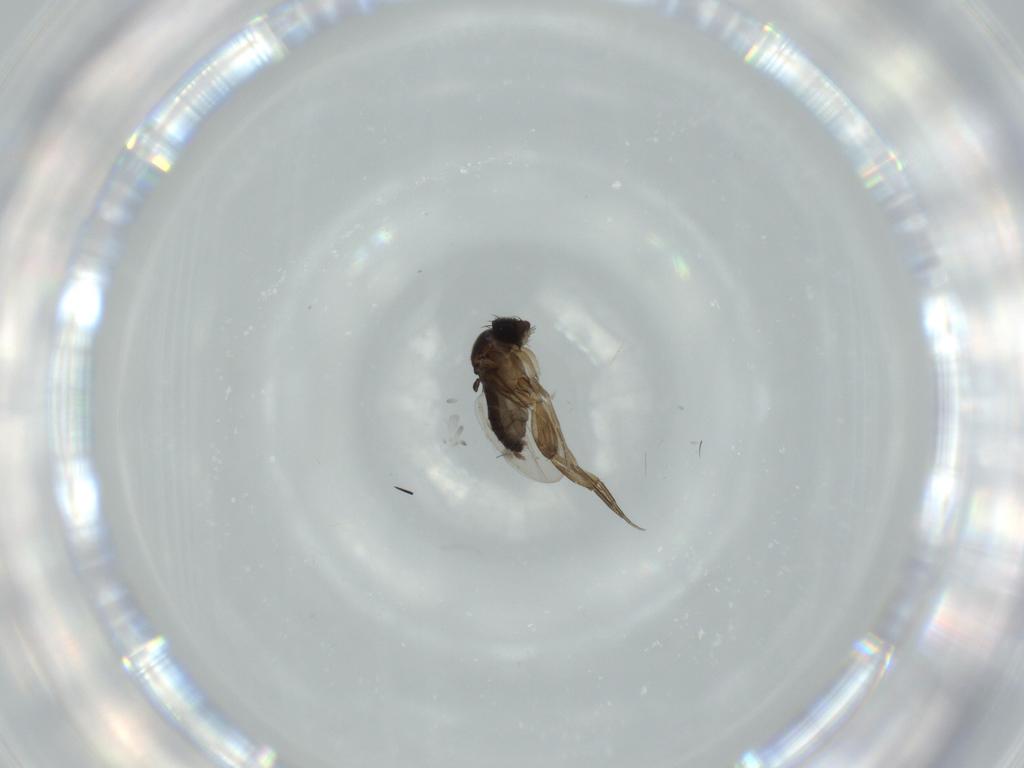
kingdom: Animalia
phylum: Arthropoda
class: Insecta
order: Diptera
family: Phoridae
